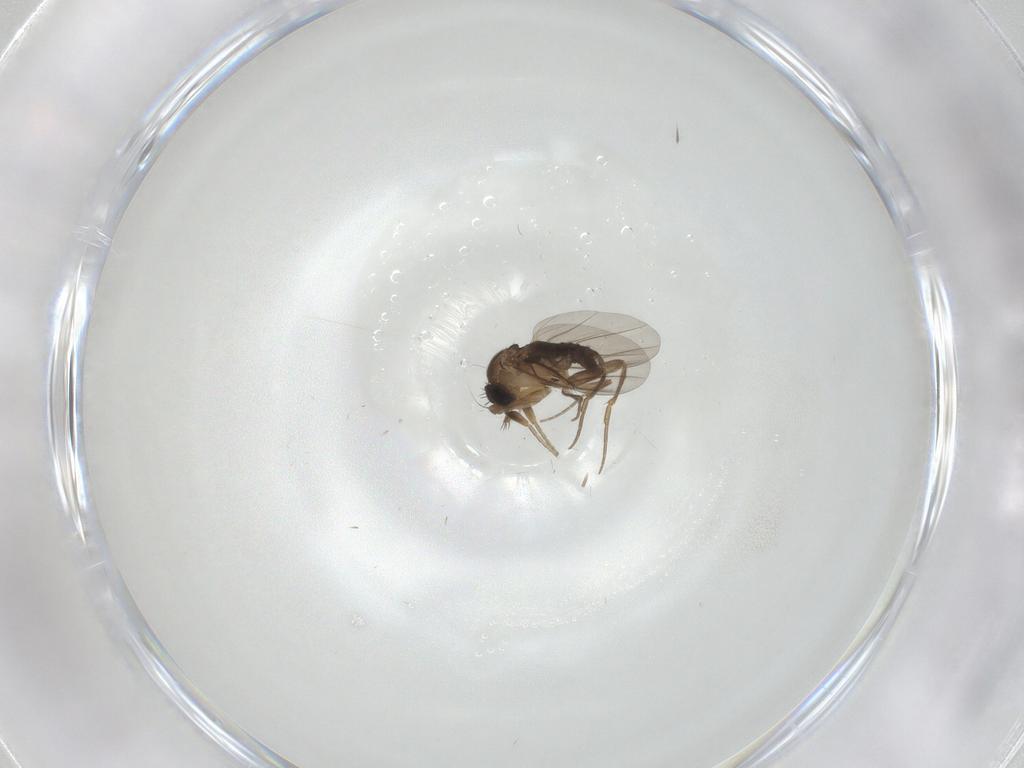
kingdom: Animalia
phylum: Arthropoda
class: Insecta
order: Diptera
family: Phoridae
